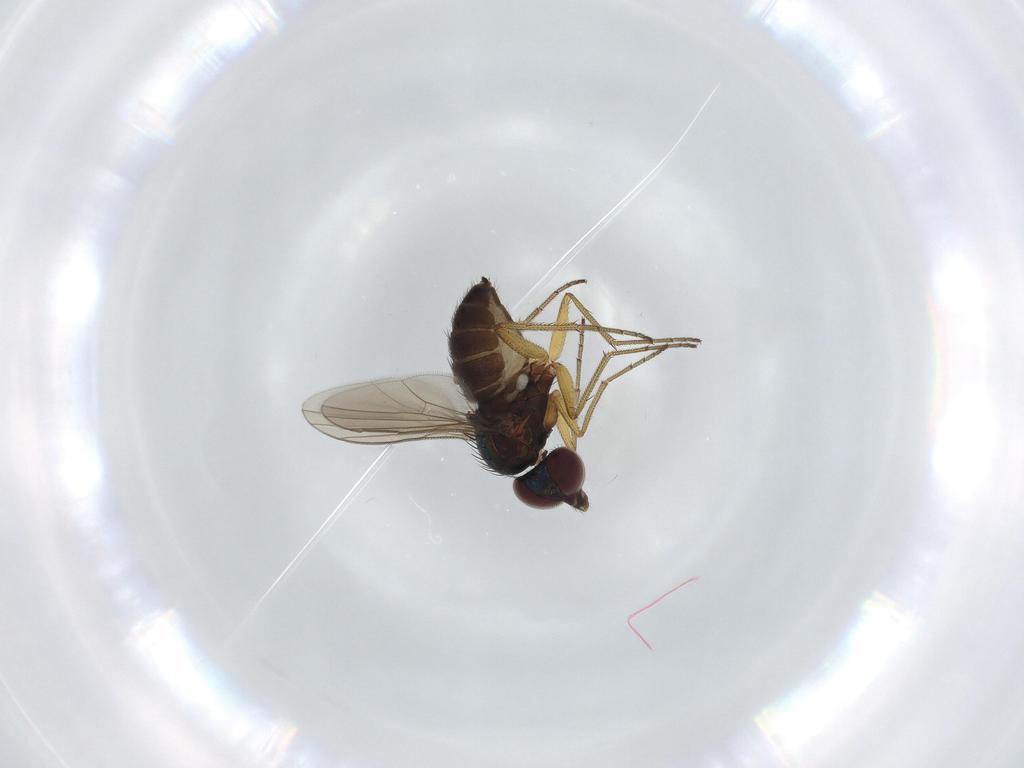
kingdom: Animalia
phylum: Arthropoda
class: Insecta
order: Diptera
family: Dolichopodidae
